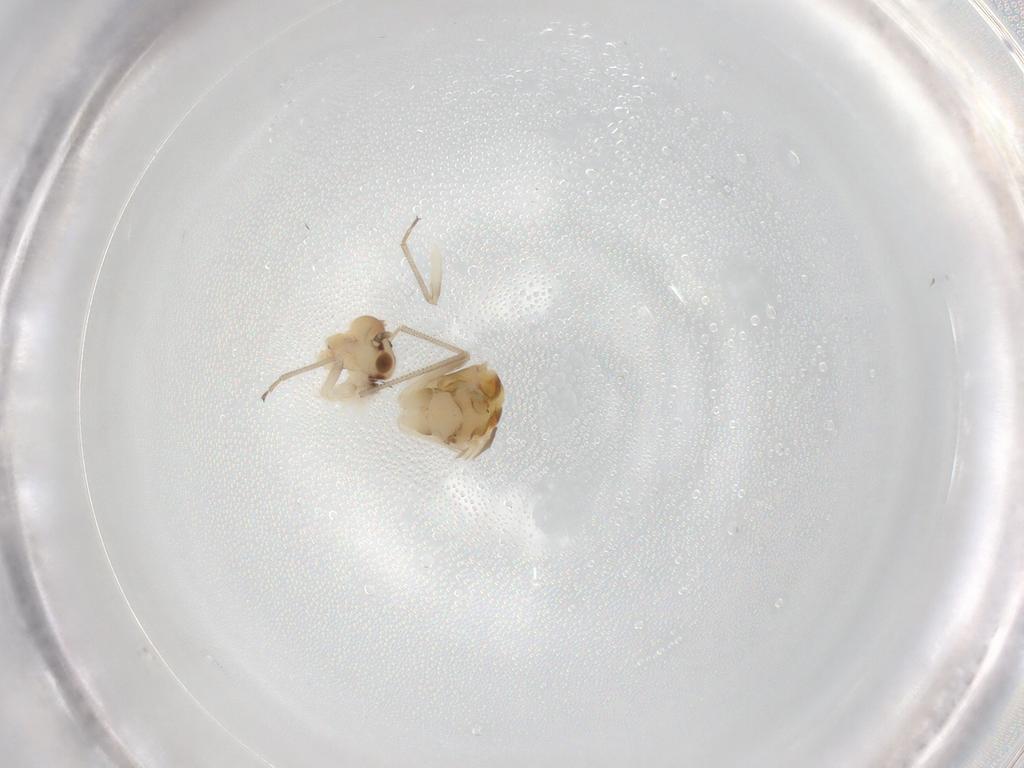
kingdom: Animalia
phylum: Arthropoda
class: Insecta
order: Psocodea
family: Caeciliusidae
